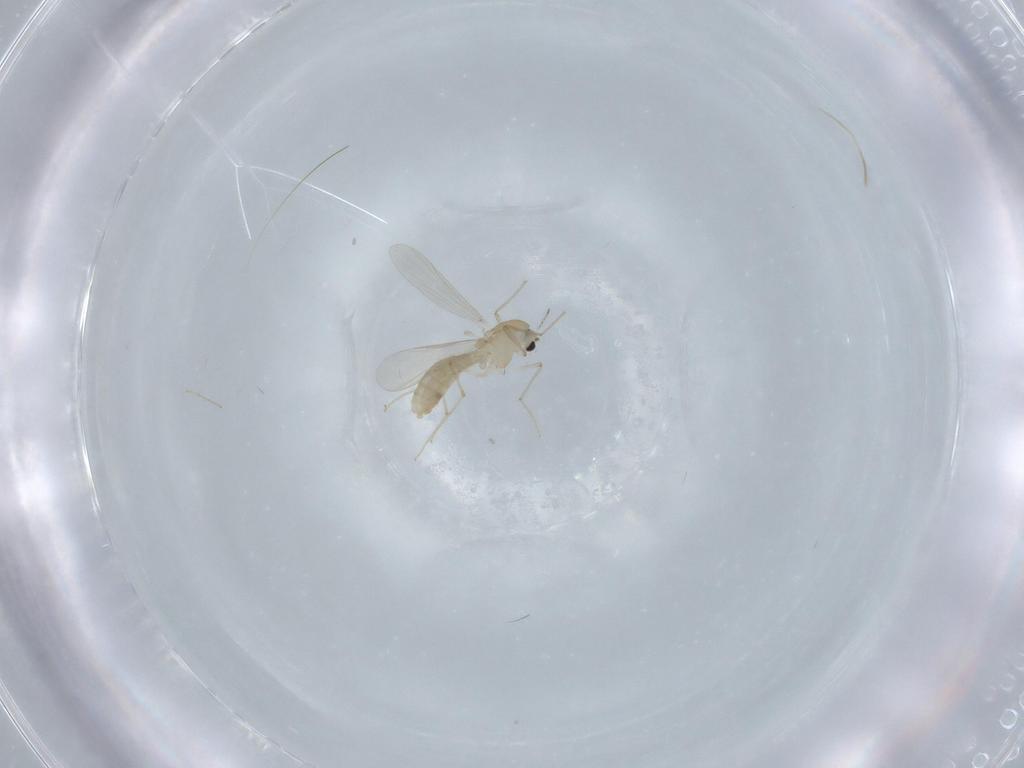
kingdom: Animalia
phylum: Arthropoda
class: Insecta
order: Diptera
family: Chironomidae
